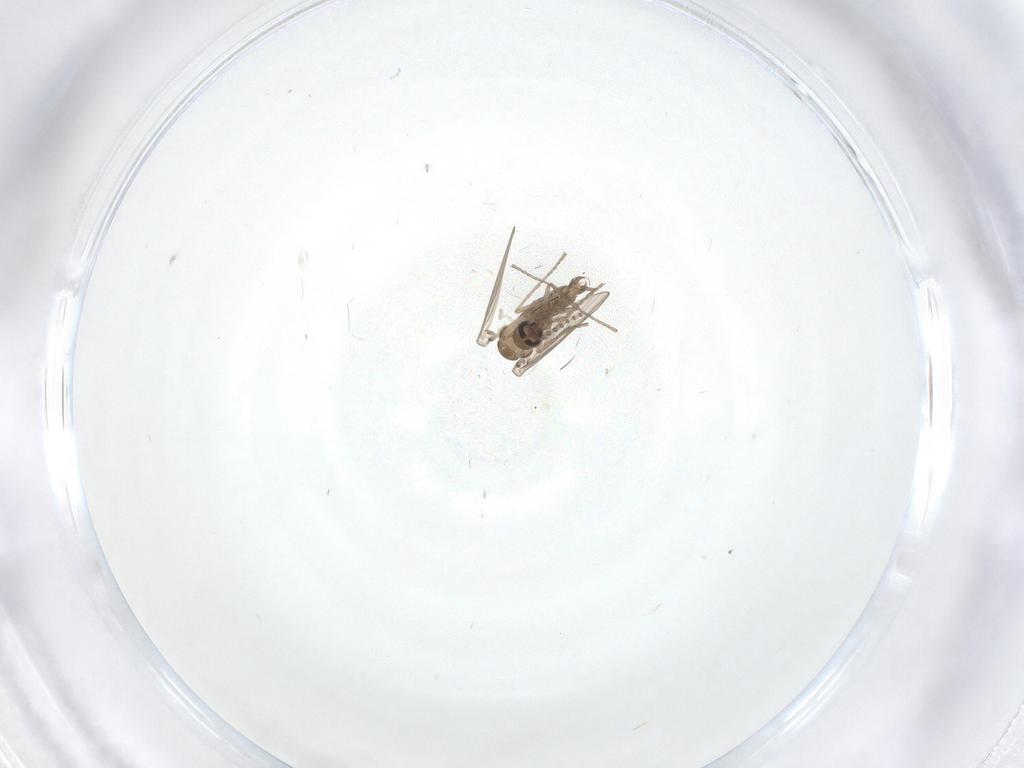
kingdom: Animalia
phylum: Arthropoda
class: Insecta
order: Diptera
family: Psychodidae
